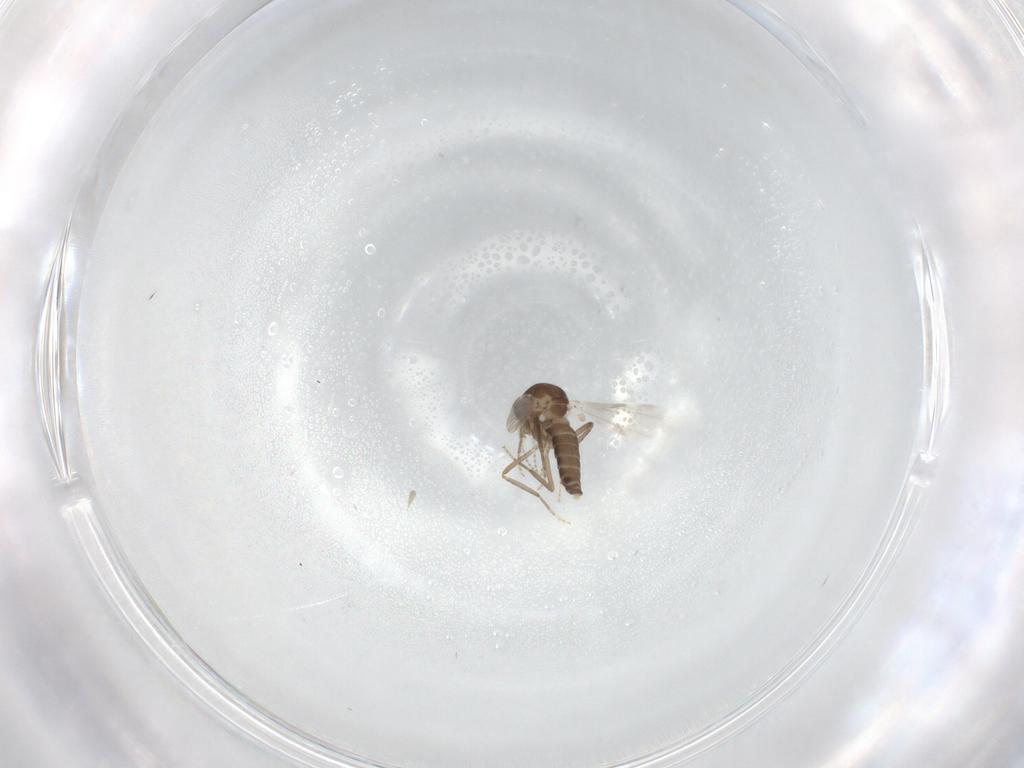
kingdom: Animalia
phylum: Arthropoda
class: Insecta
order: Diptera
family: Ceratopogonidae
